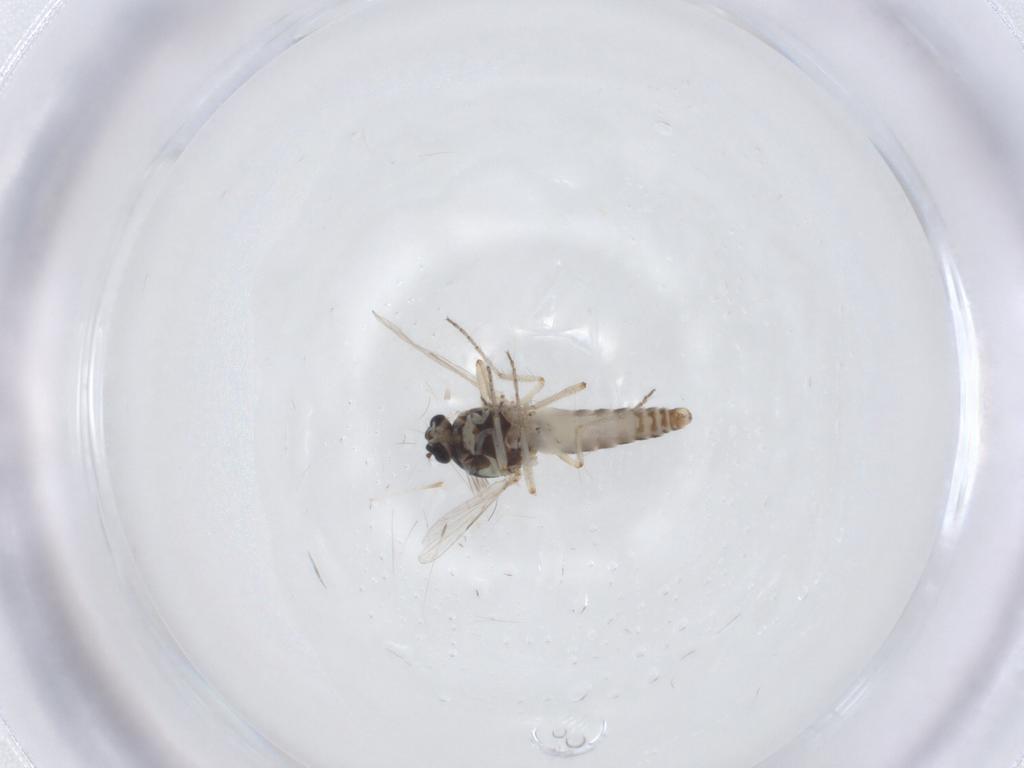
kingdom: Animalia
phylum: Arthropoda
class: Insecta
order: Diptera
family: Ceratopogonidae
